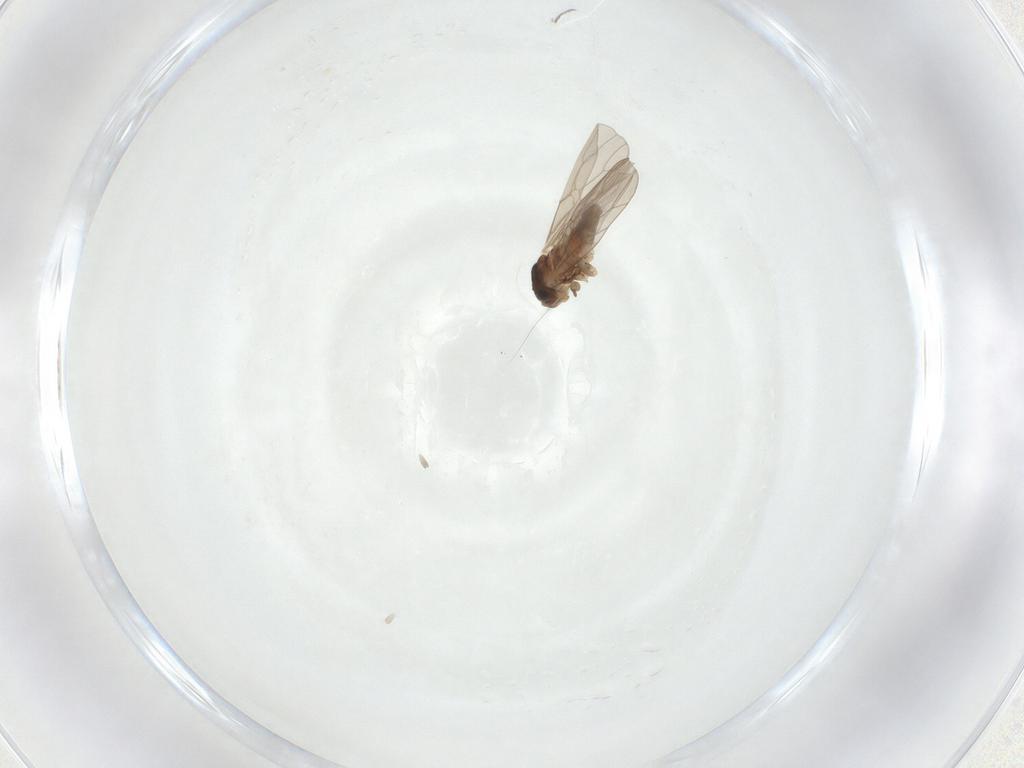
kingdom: Animalia
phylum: Arthropoda
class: Insecta
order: Psocodea
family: Lepidopsocidae
